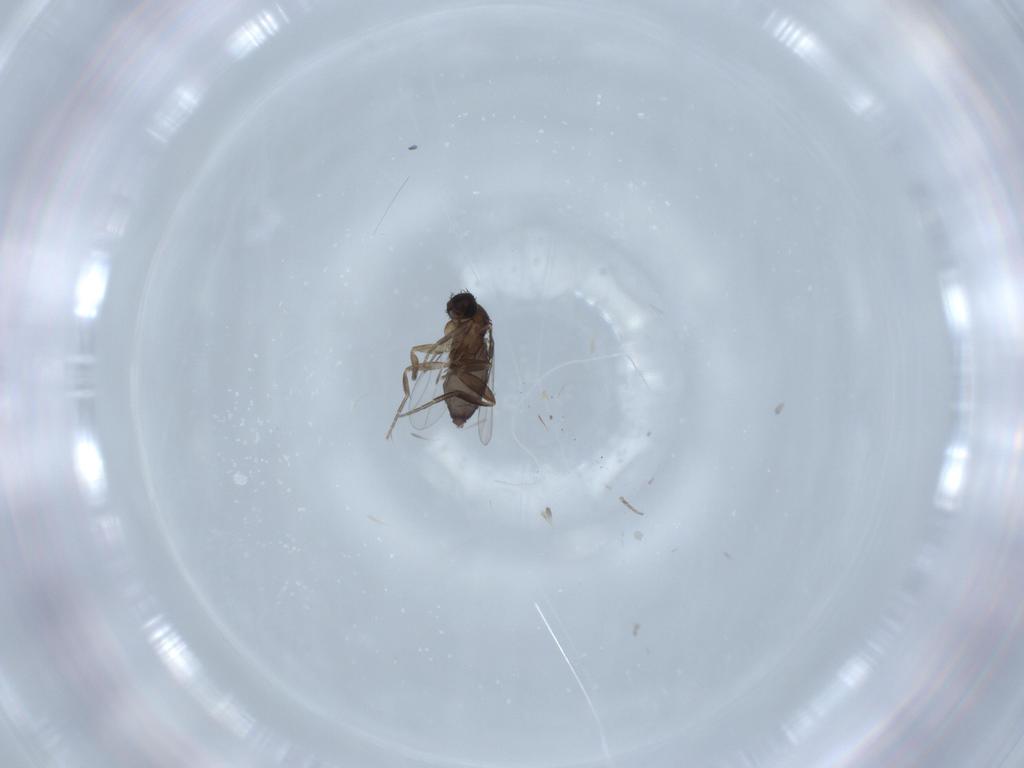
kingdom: Animalia
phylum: Arthropoda
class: Insecta
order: Diptera
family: Phoridae
